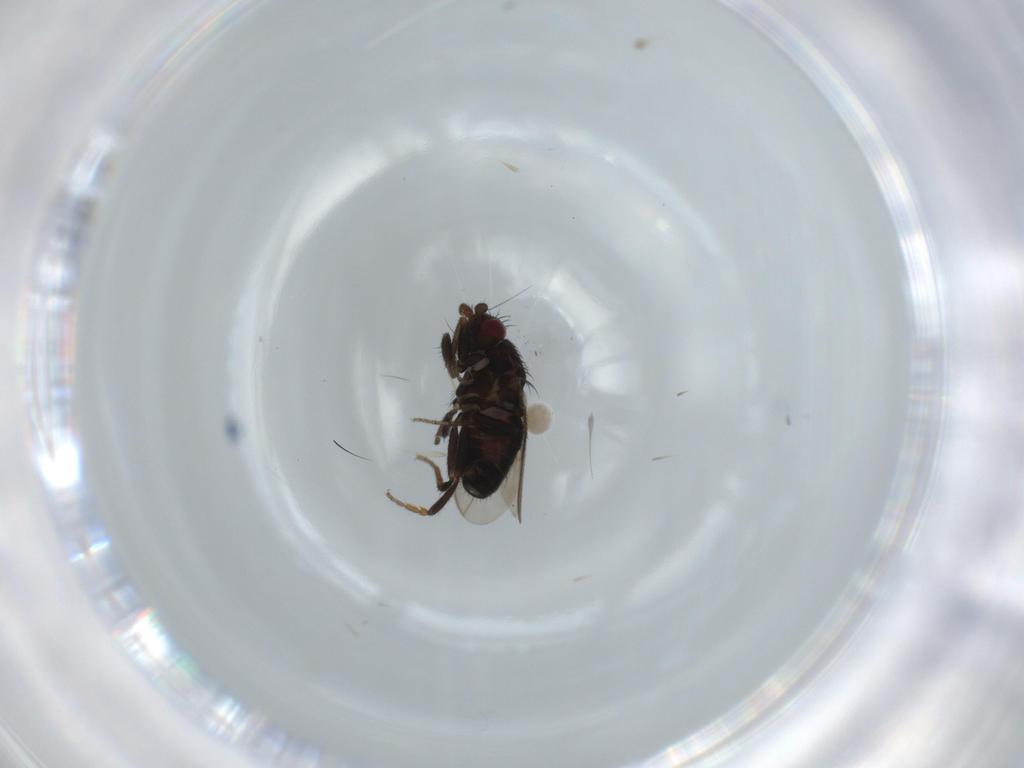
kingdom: Animalia
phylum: Arthropoda
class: Insecta
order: Diptera
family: Sphaeroceridae
